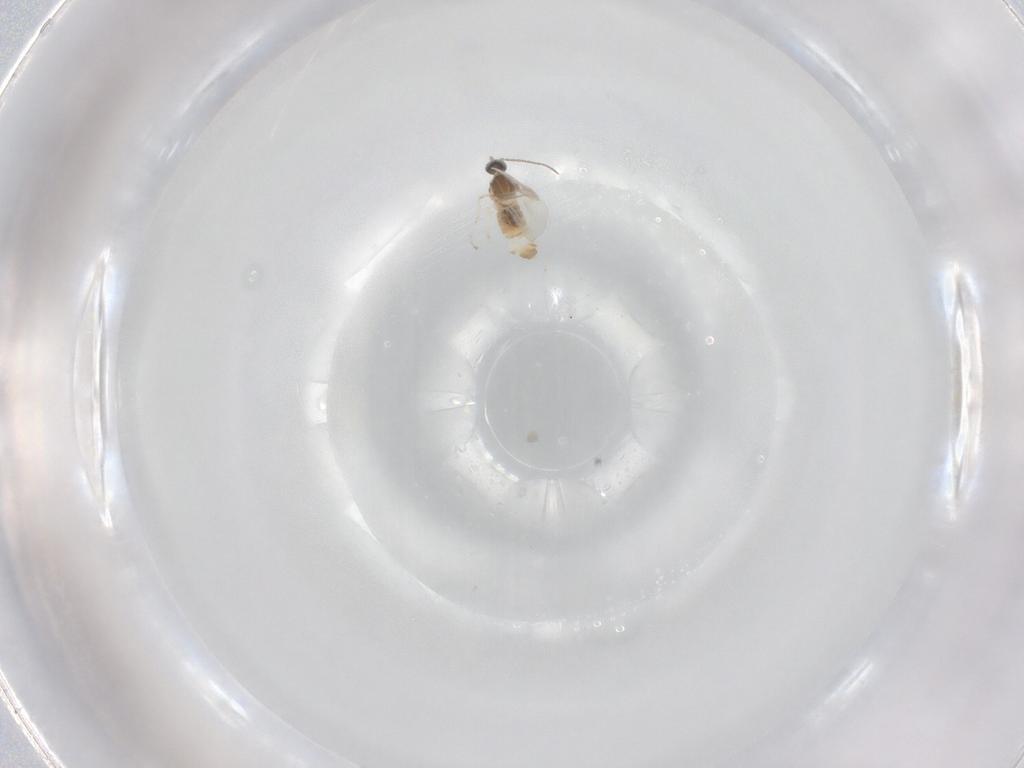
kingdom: Animalia
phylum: Arthropoda
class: Insecta
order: Diptera
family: Cecidomyiidae
